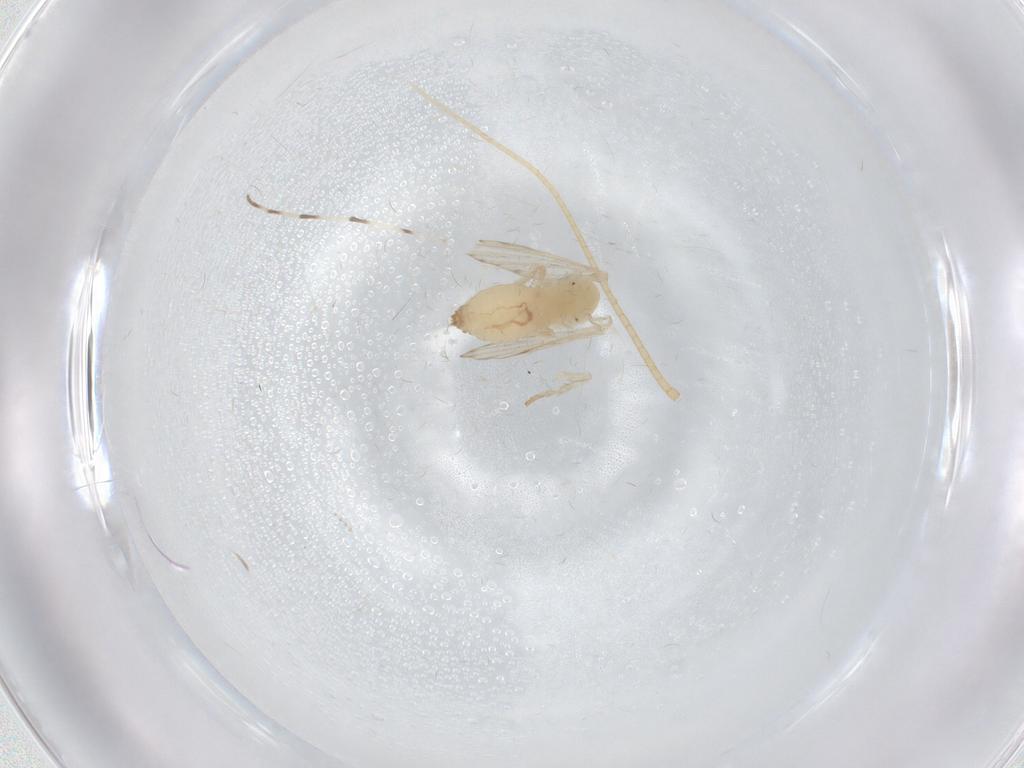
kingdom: Animalia
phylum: Arthropoda
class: Insecta
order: Diptera
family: Psychodidae
